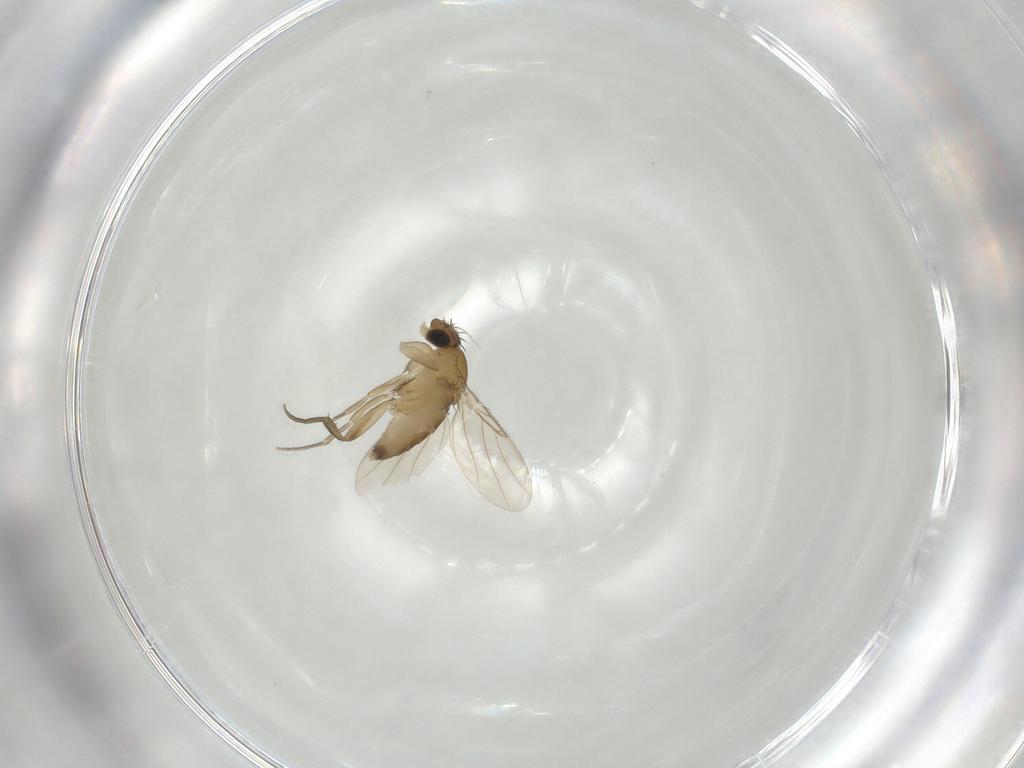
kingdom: Animalia
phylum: Arthropoda
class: Insecta
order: Diptera
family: Phoridae
